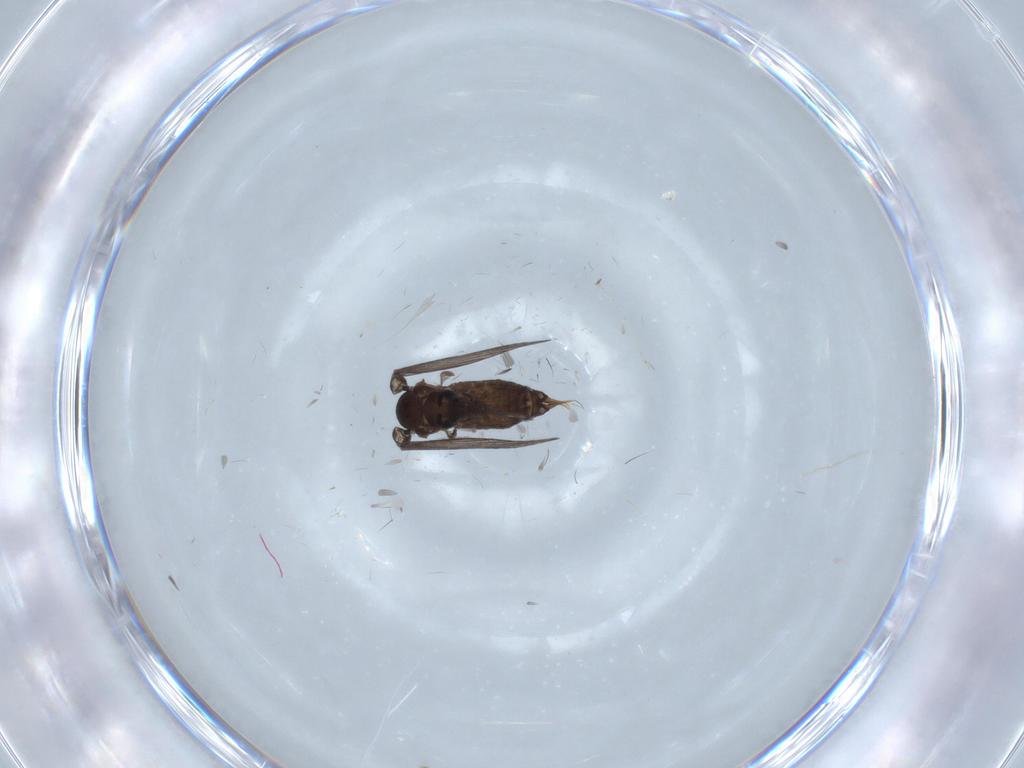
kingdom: Animalia
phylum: Arthropoda
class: Insecta
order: Diptera
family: Psychodidae
